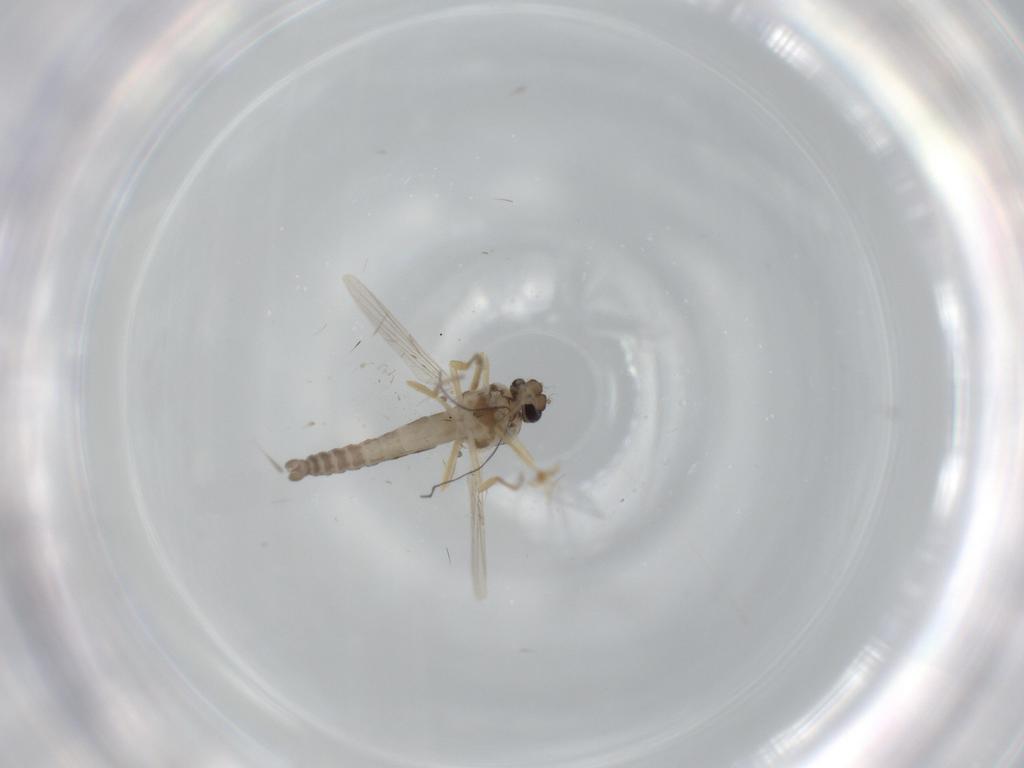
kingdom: Animalia
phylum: Arthropoda
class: Insecta
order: Diptera
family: Ceratopogonidae
